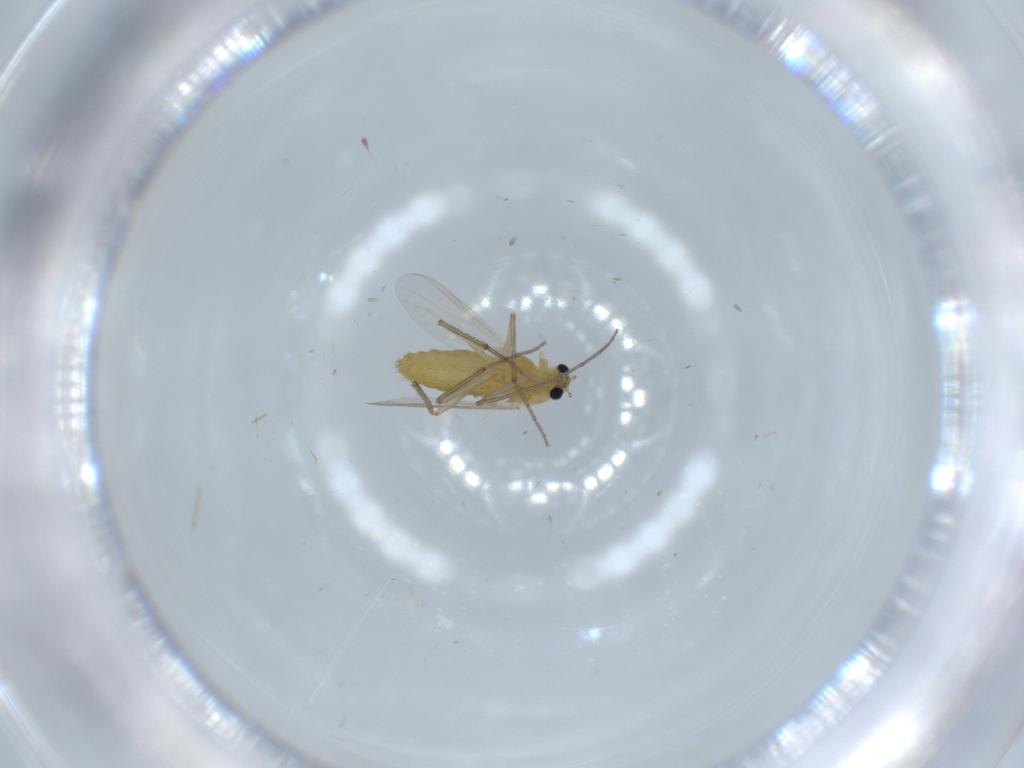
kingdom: Animalia
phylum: Arthropoda
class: Insecta
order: Diptera
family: Chironomidae
